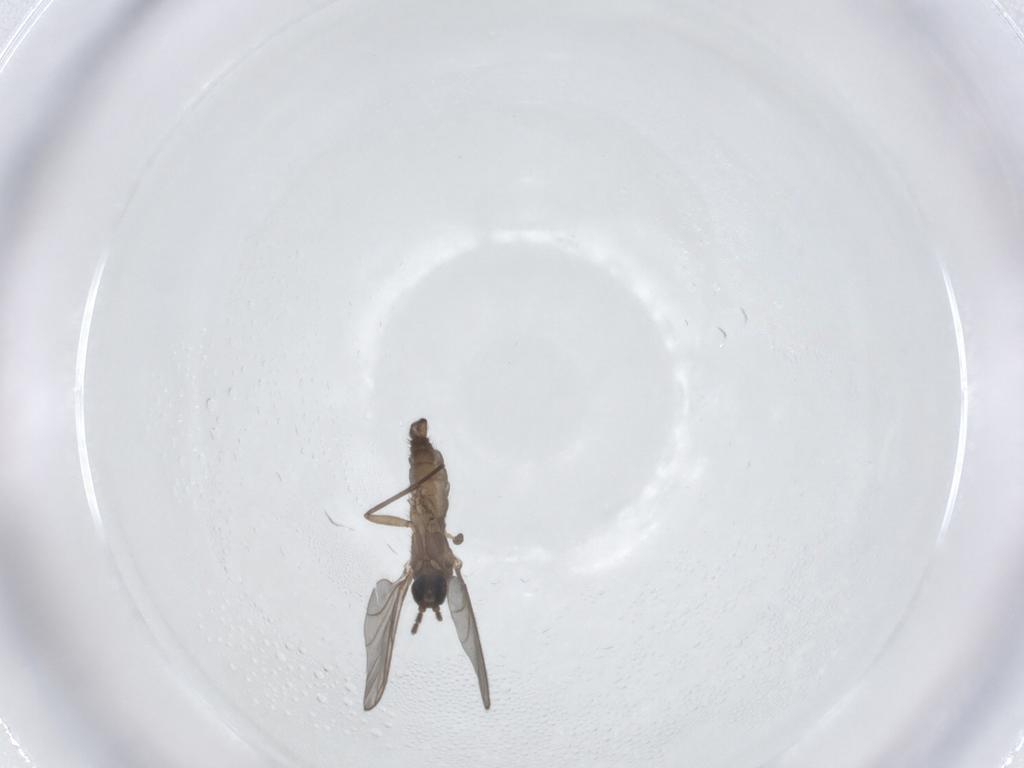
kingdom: Animalia
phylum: Arthropoda
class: Insecta
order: Diptera
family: Sciaridae
